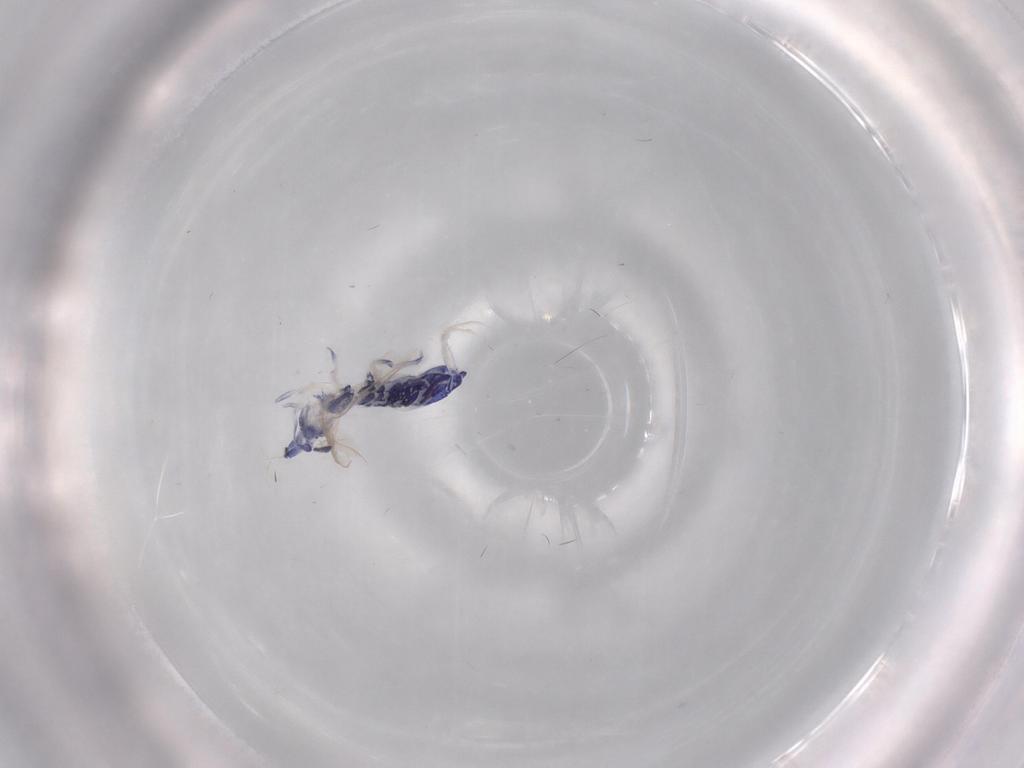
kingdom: Animalia
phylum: Arthropoda
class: Collembola
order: Entomobryomorpha
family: Entomobryidae
